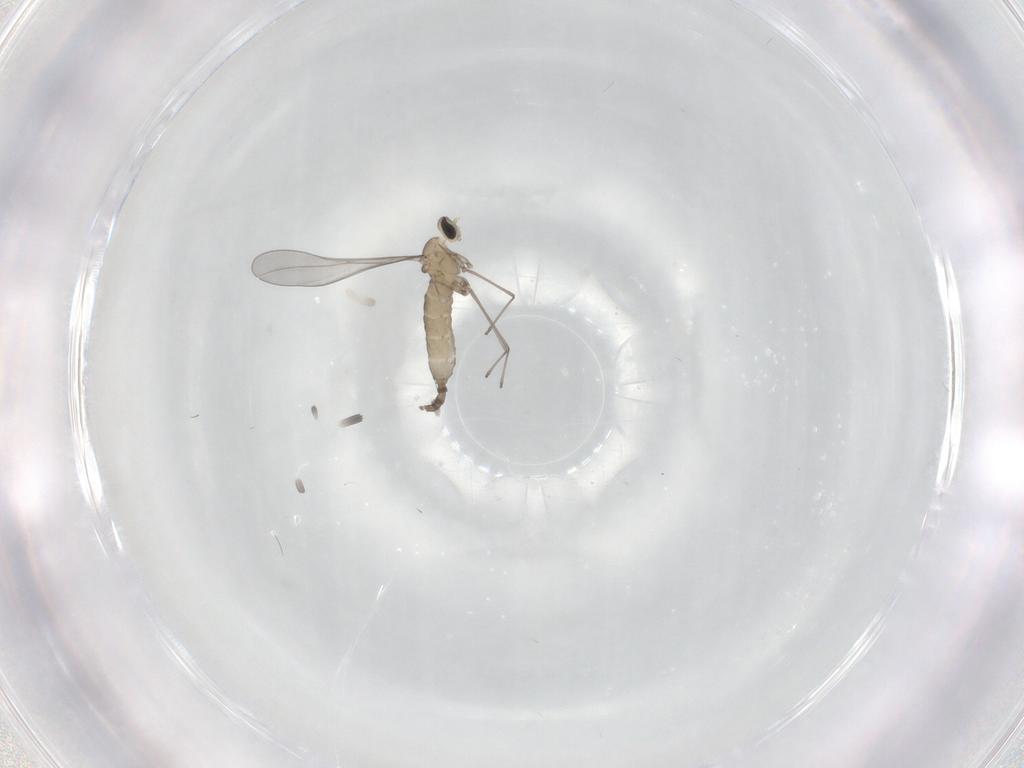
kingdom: Animalia
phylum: Arthropoda
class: Insecta
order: Diptera
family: Cecidomyiidae
